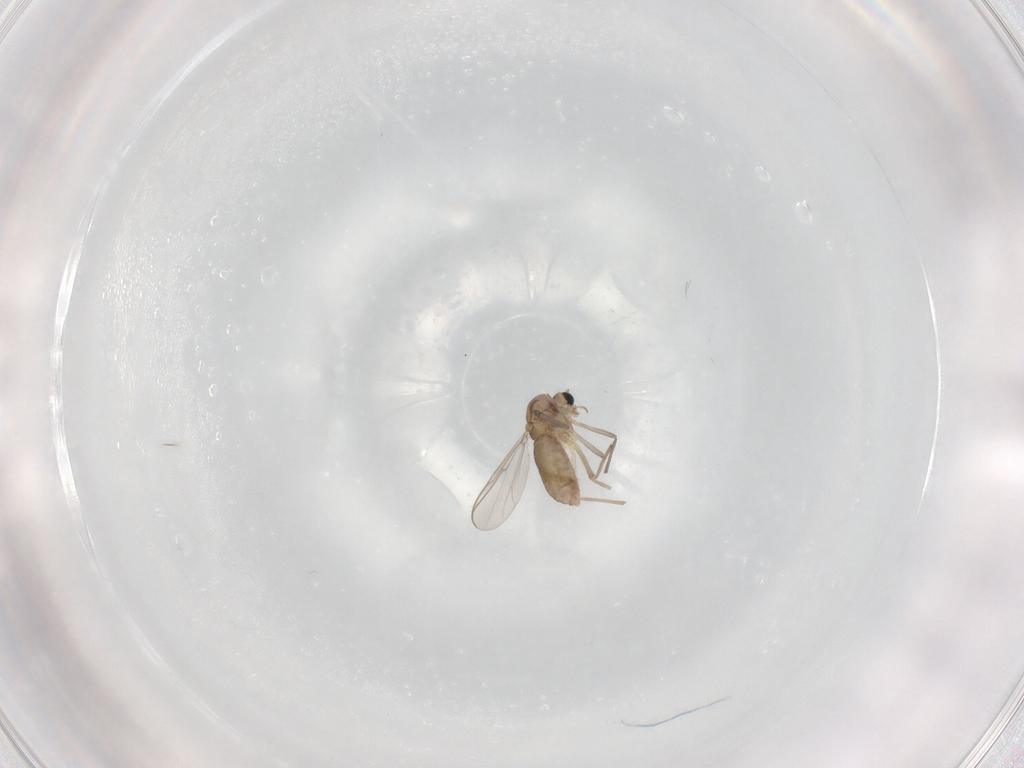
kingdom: Animalia
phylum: Arthropoda
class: Insecta
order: Diptera
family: Chironomidae
